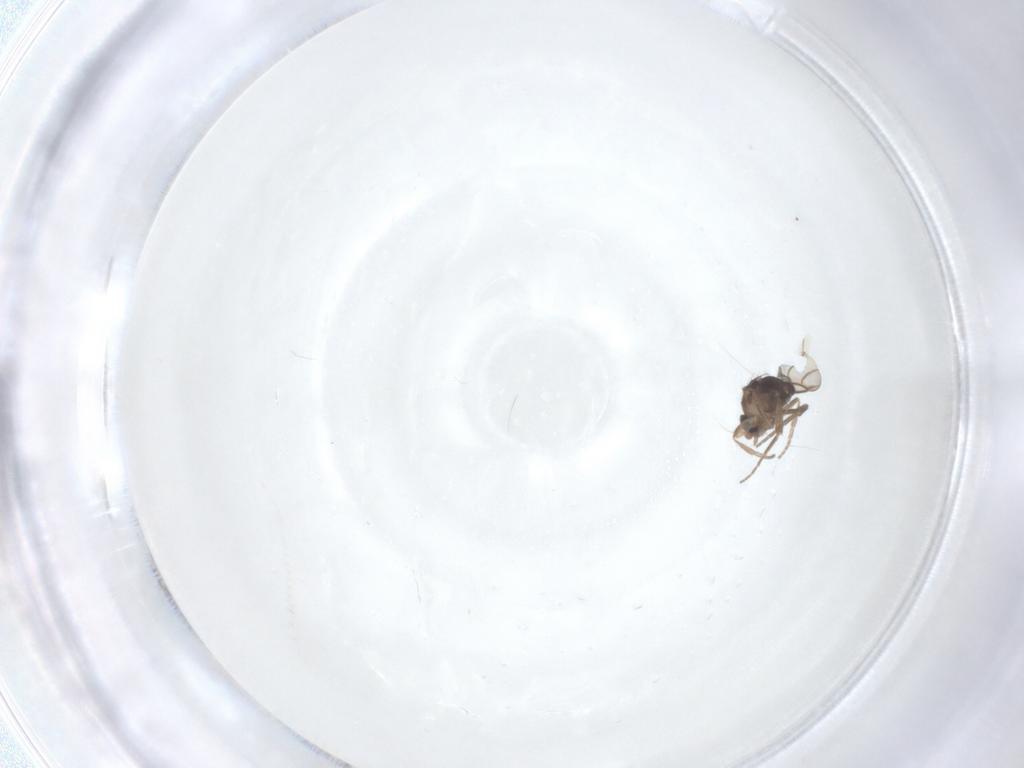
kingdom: Animalia
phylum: Arthropoda
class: Insecta
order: Diptera
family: Phoridae
